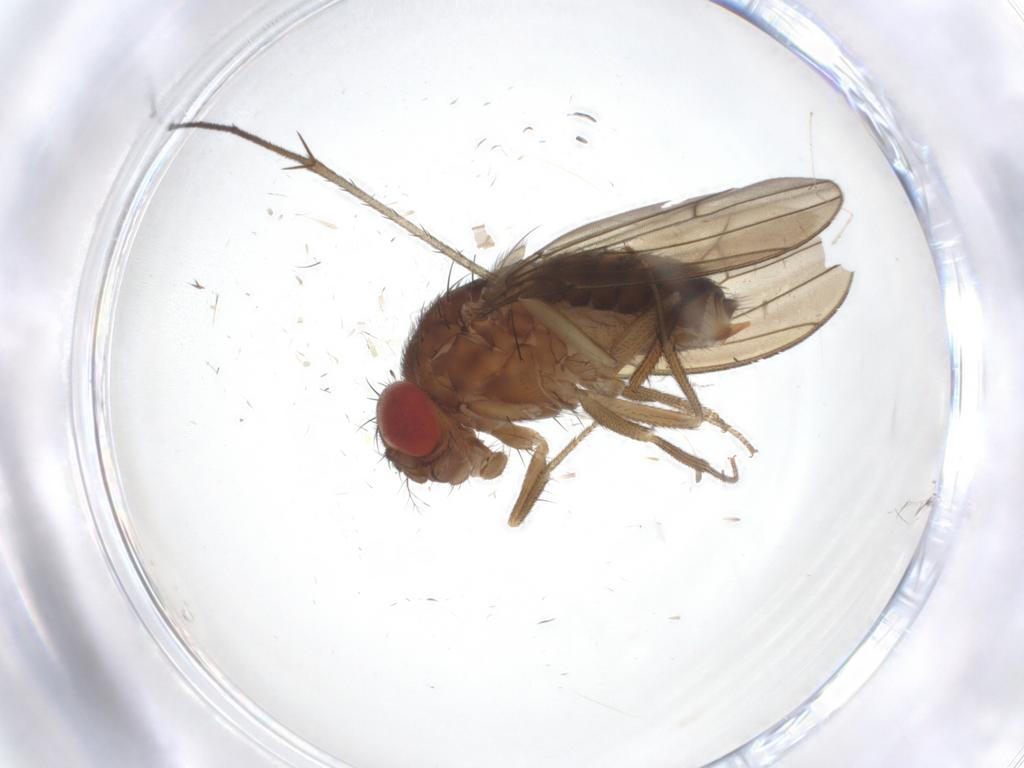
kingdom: Animalia
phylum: Arthropoda
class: Insecta
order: Diptera
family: Drosophilidae
